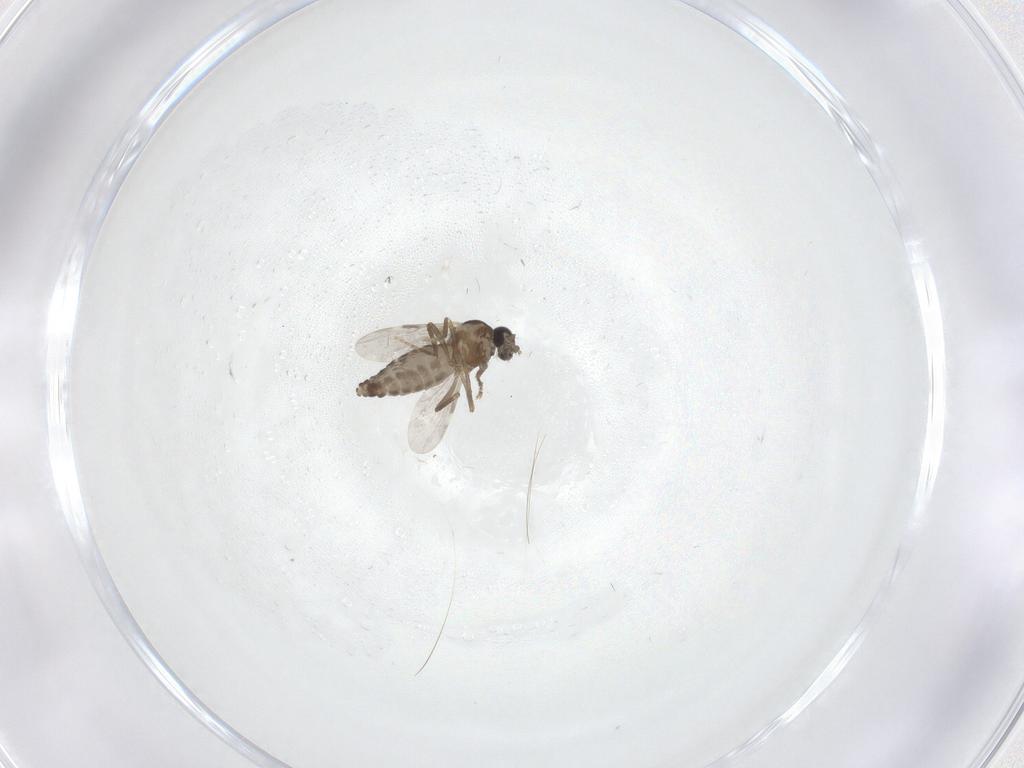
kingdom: Animalia
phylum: Arthropoda
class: Insecta
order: Diptera
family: Ceratopogonidae
